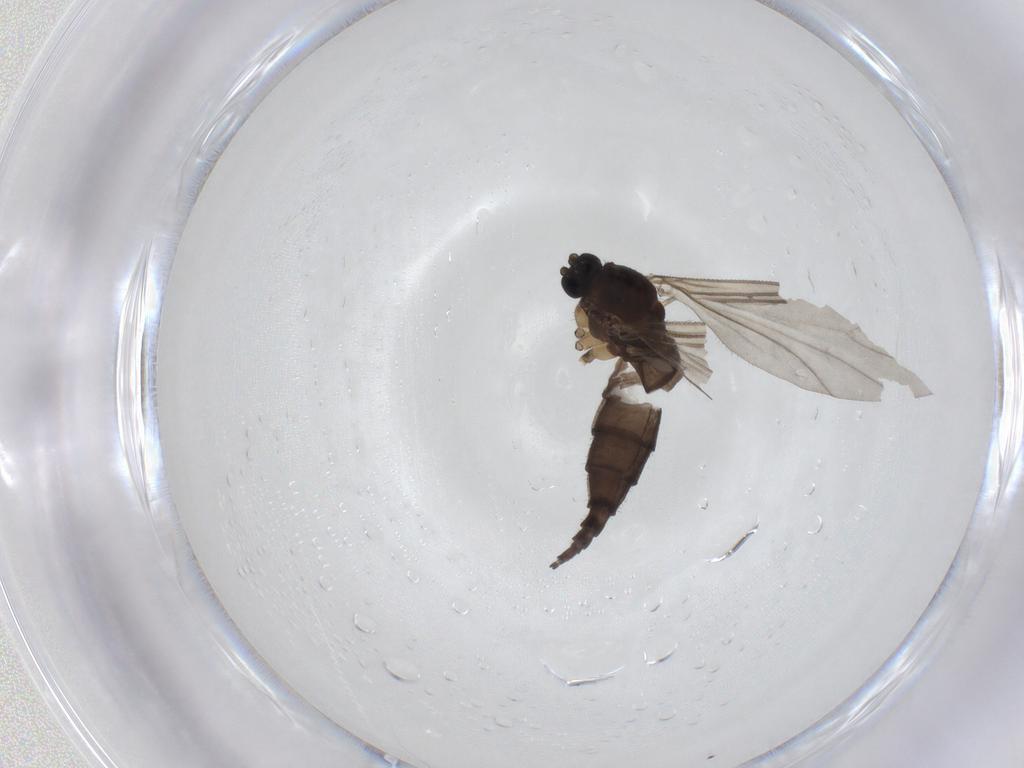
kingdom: Animalia
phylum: Arthropoda
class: Insecta
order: Diptera
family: Sciaridae
